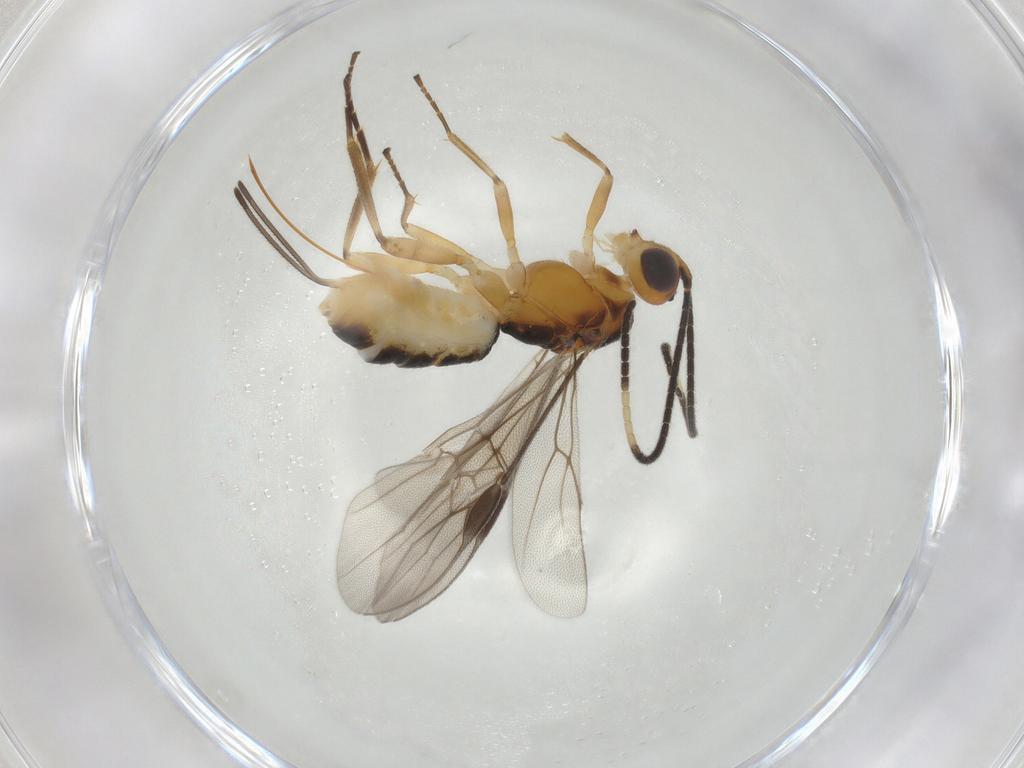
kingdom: Animalia
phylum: Arthropoda
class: Insecta
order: Hymenoptera
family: Braconidae
